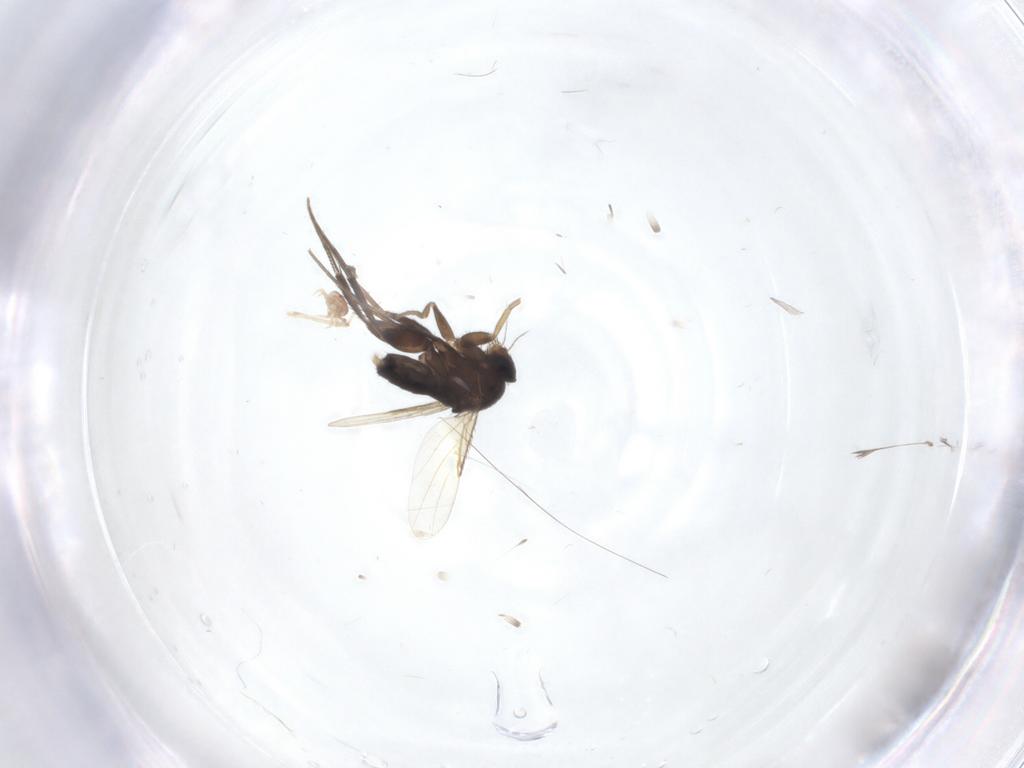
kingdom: Animalia
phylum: Arthropoda
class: Insecta
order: Diptera
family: Phoridae
